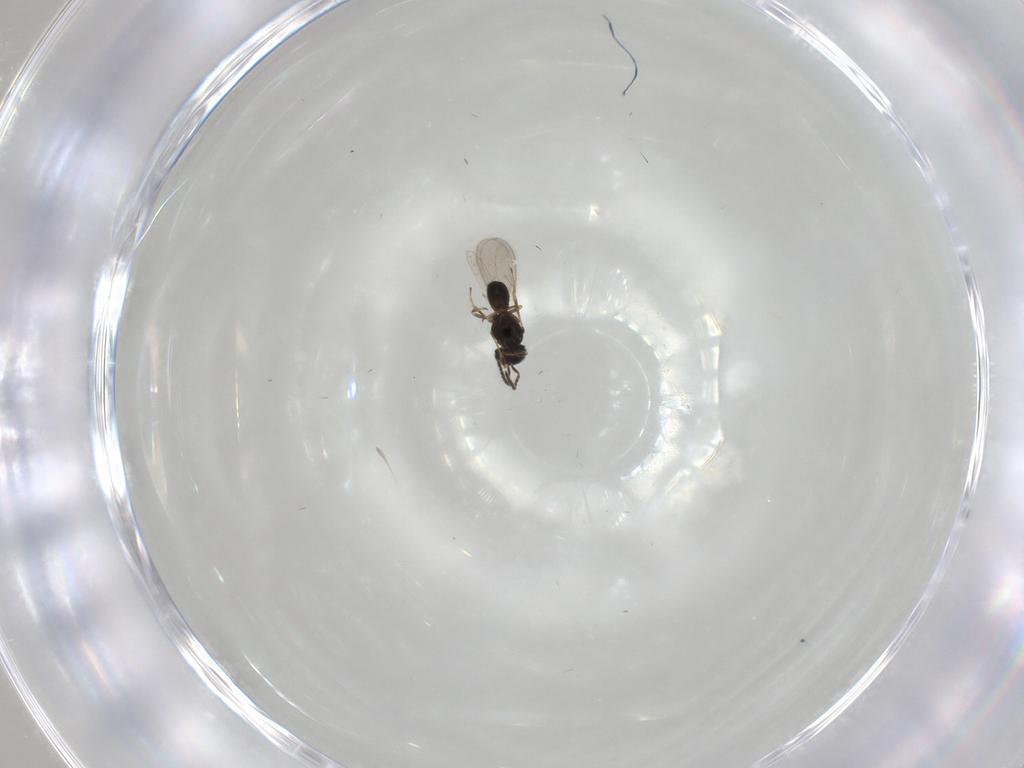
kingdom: Animalia
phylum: Arthropoda
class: Insecta
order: Hymenoptera
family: Scelionidae
